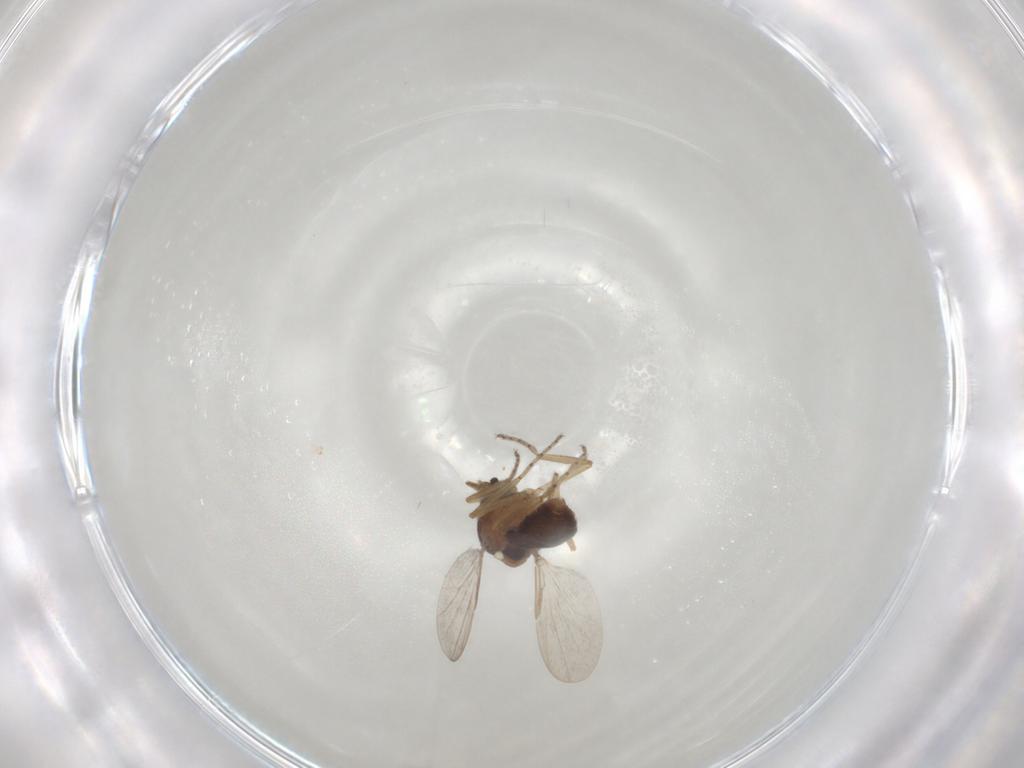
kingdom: Animalia
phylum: Arthropoda
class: Insecta
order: Diptera
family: Ceratopogonidae
